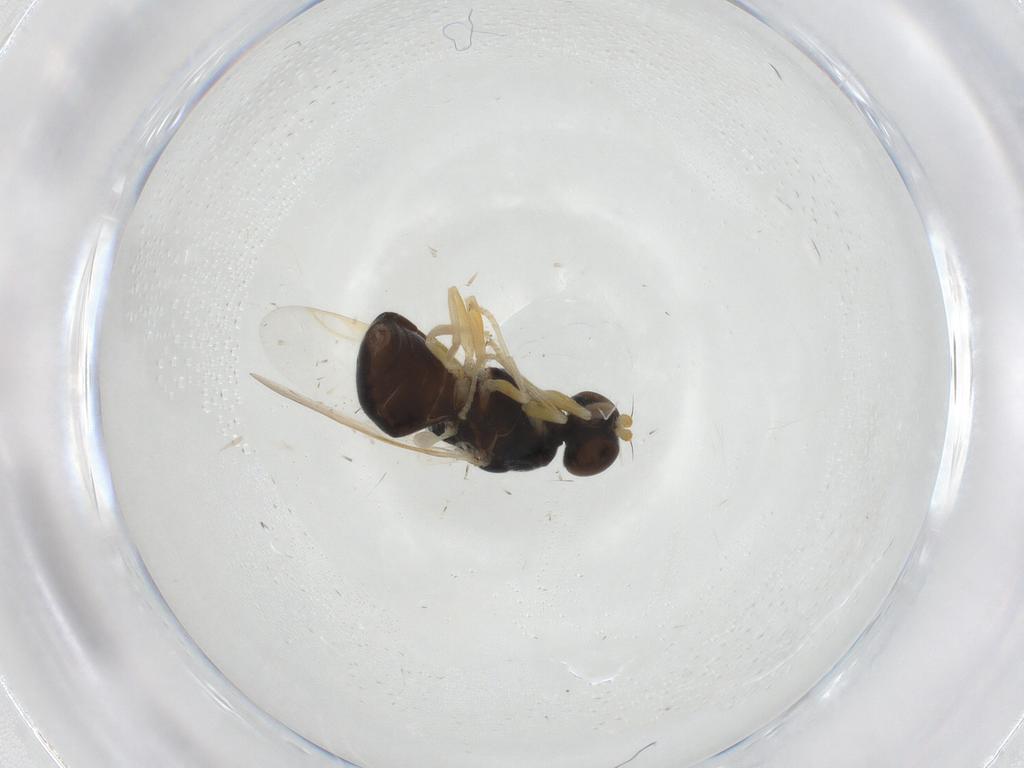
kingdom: Animalia
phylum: Arthropoda
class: Insecta
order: Diptera
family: Stratiomyidae
